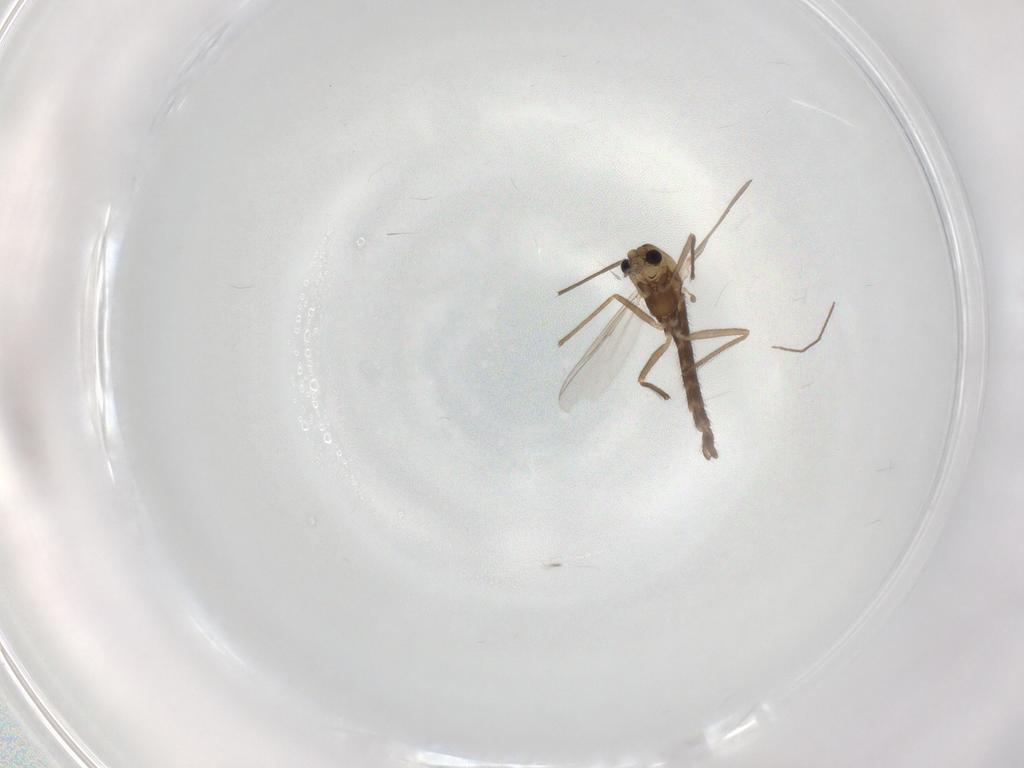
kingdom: Animalia
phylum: Arthropoda
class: Insecta
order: Diptera
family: Chironomidae
